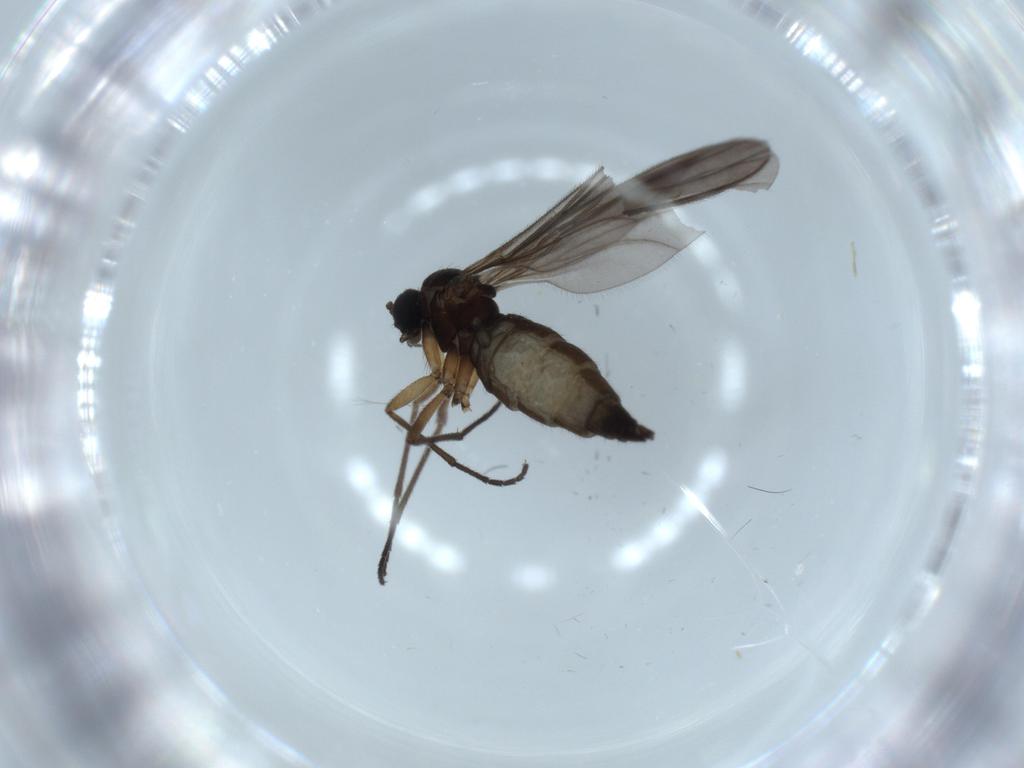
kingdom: Animalia
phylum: Arthropoda
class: Insecta
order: Diptera
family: Sciaridae
